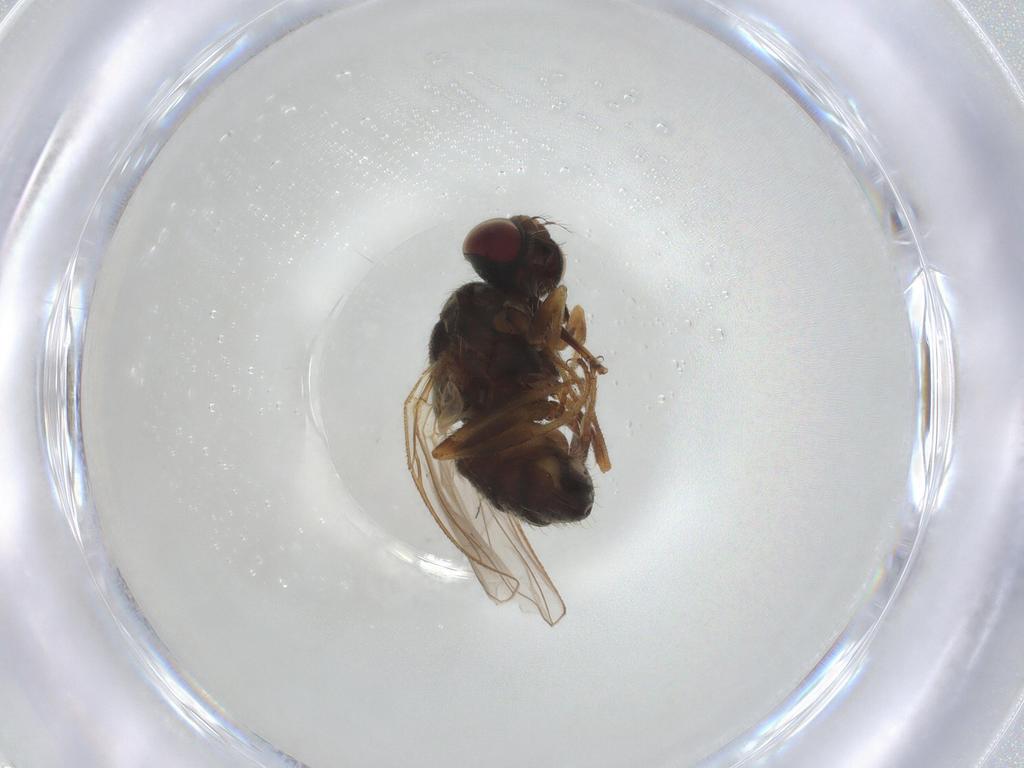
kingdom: Animalia
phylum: Arthropoda
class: Insecta
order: Diptera
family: Muscidae
